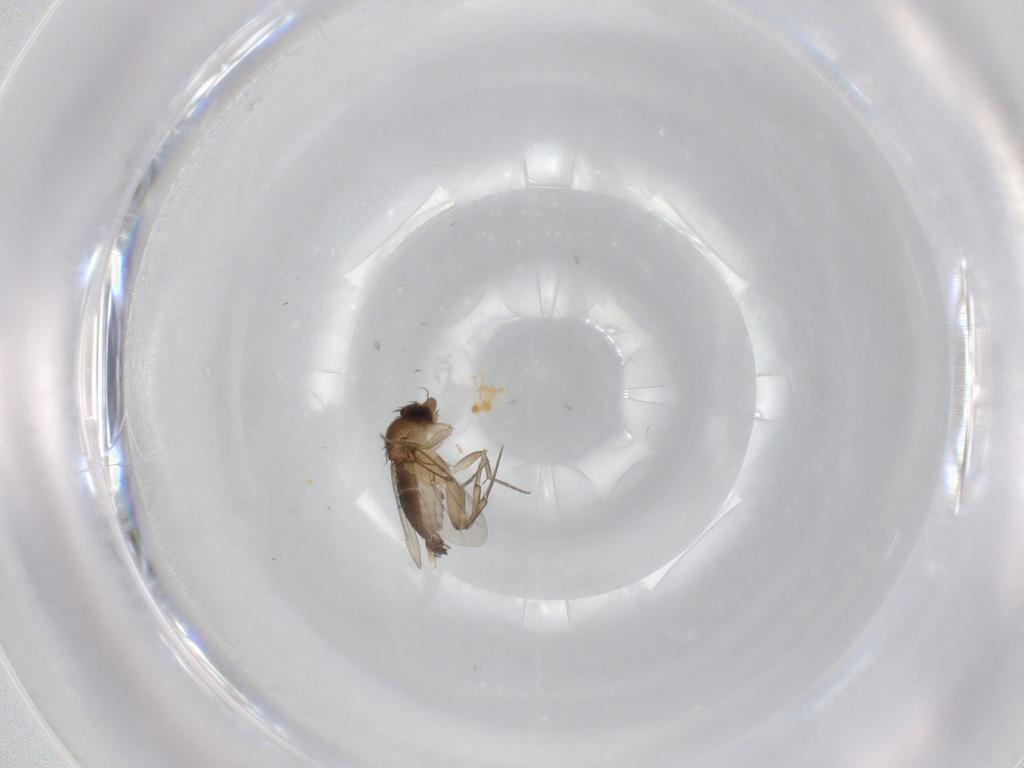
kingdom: Animalia
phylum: Arthropoda
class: Insecta
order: Diptera
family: Phoridae
